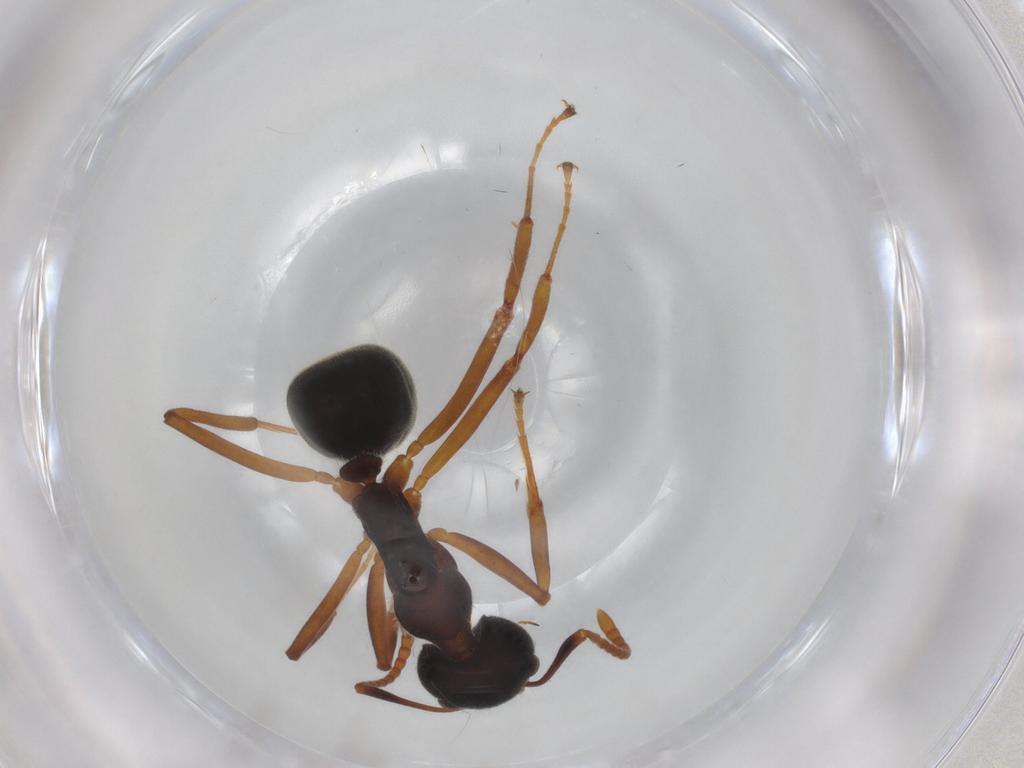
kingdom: Animalia
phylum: Arthropoda
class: Insecta
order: Hymenoptera
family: Formicidae
